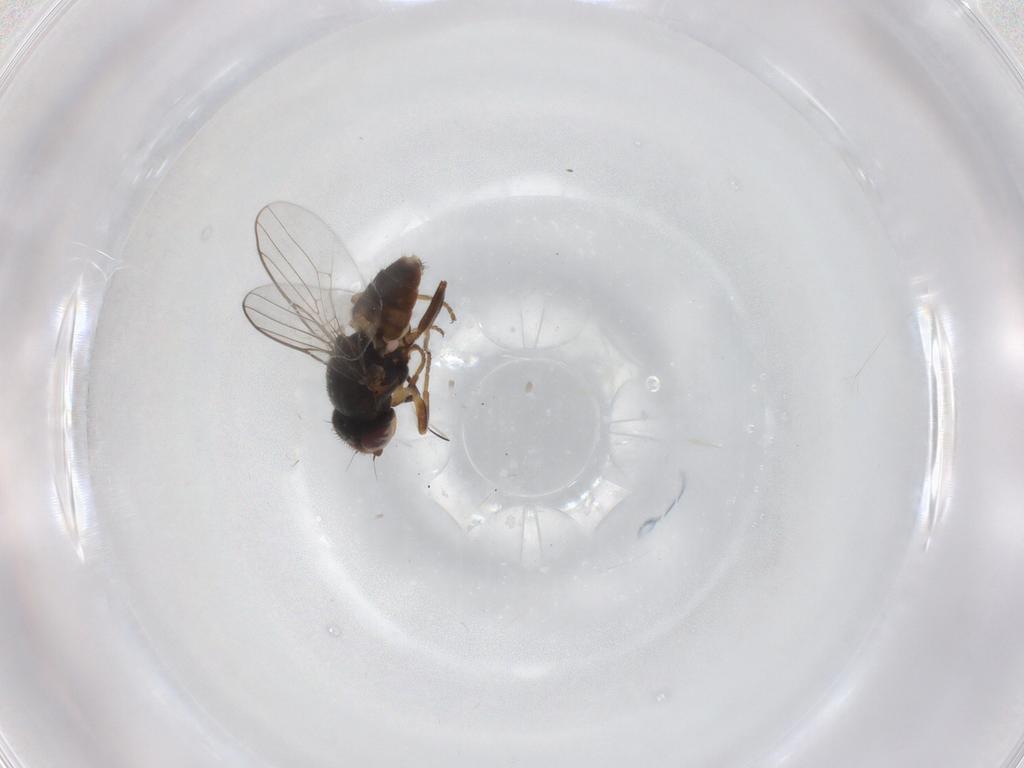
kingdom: Animalia
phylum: Arthropoda
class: Insecta
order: Diptera
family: Chloropidae
